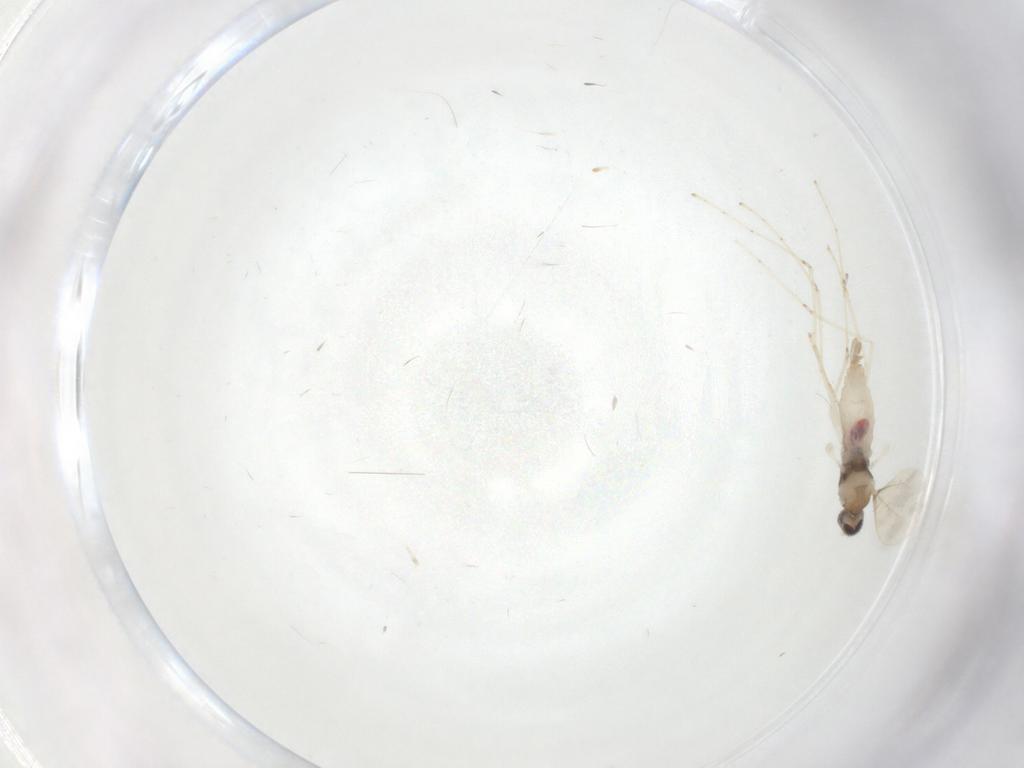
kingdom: Animalia
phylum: Arthropoda
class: Insecta
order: Diptera
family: Cecidomyiidae
